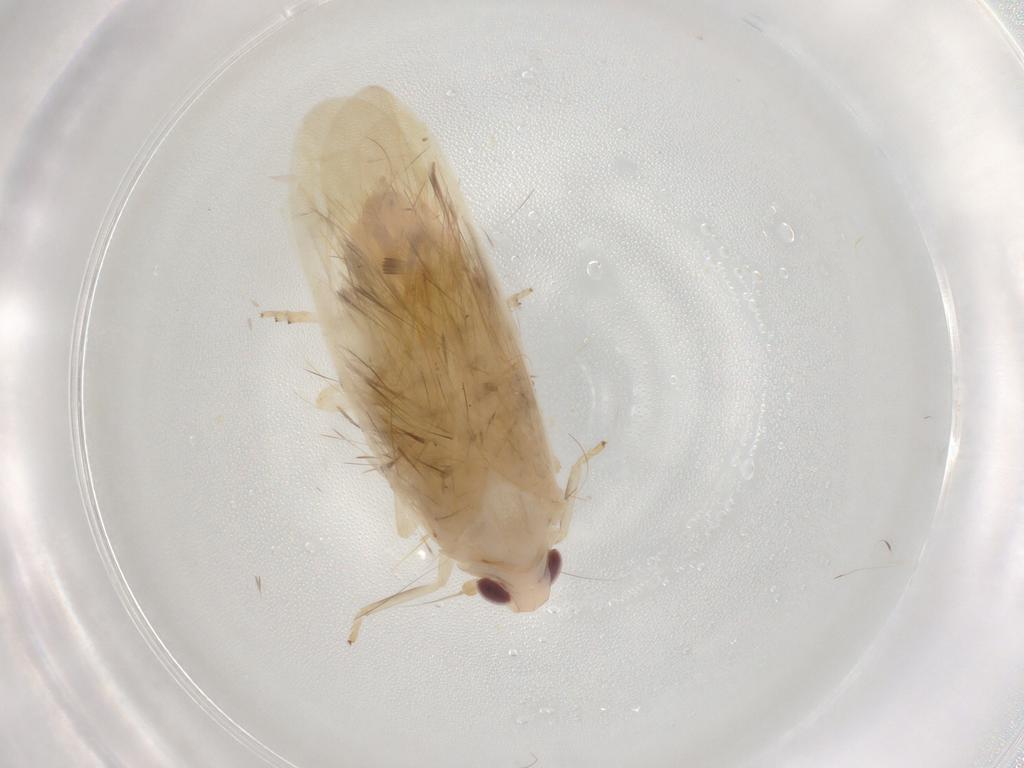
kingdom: Animalia
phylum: Arthropoda
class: Insecta
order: Hemiptera
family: Achilidae
